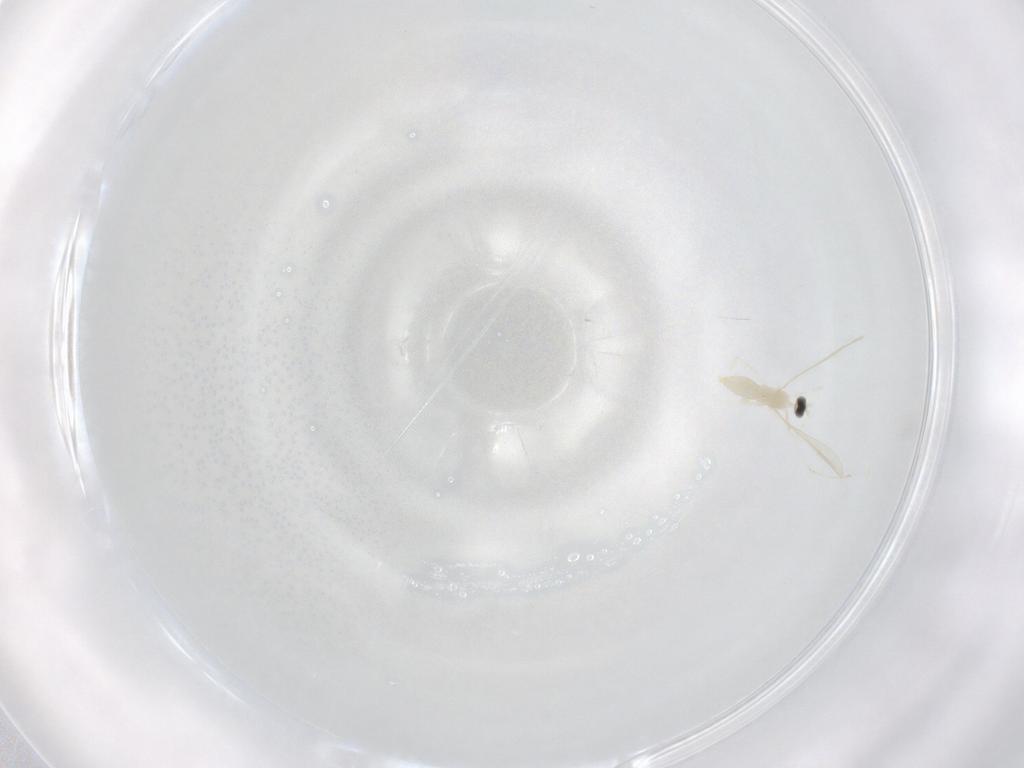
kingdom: Animalia
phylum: Arthropoda
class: Insecta
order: Diptera
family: Cecidomyiidae
